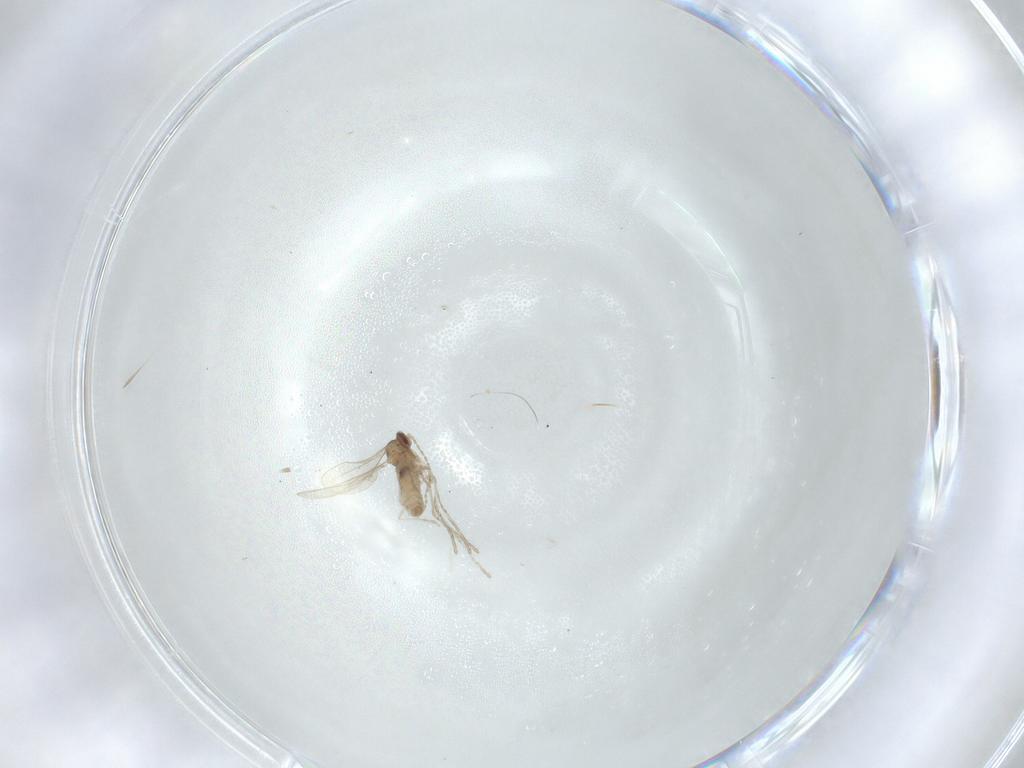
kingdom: Animalia
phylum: Arthropoda
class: Insecta
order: Diptera
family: Cecidomyiidae
